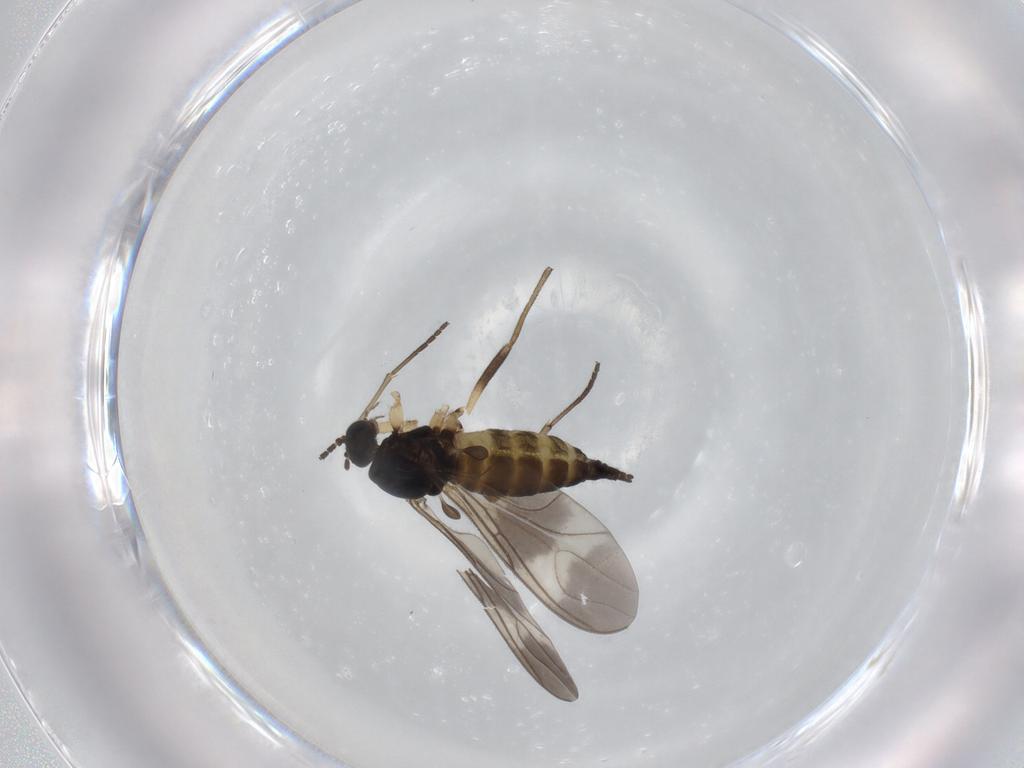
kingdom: Animalia
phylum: Arthropoda
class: Insecta
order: Diptera
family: Sciaridae
